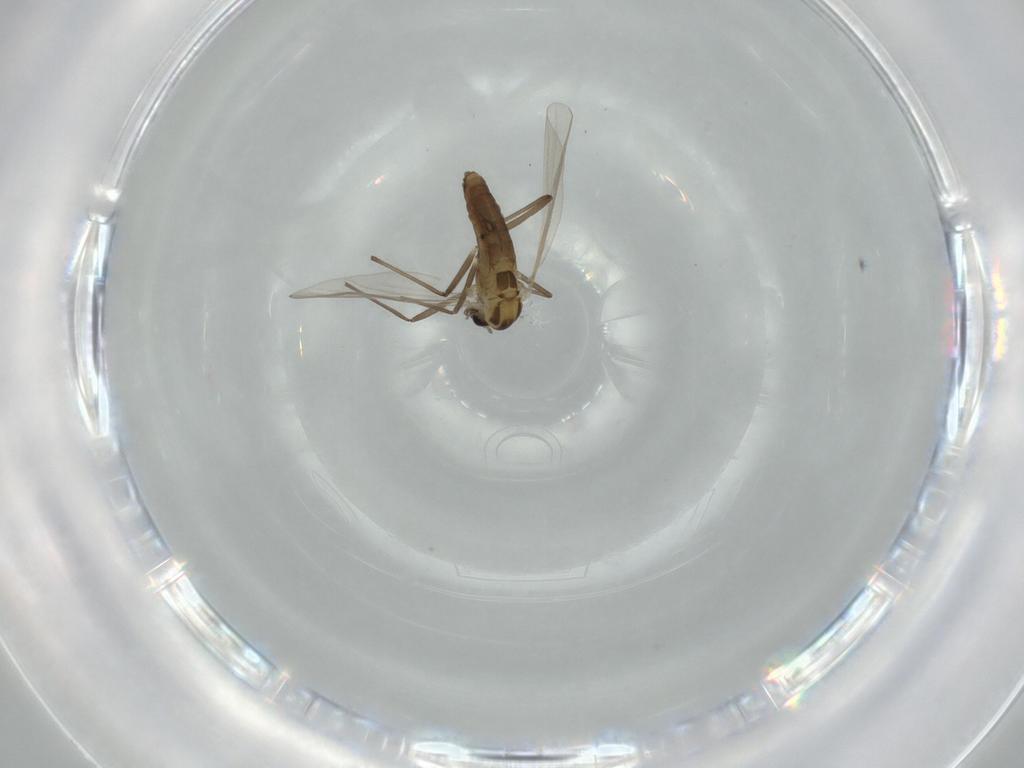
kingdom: Animalia
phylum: Arthropoda
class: Insecta
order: Diptera
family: Chironomidae
